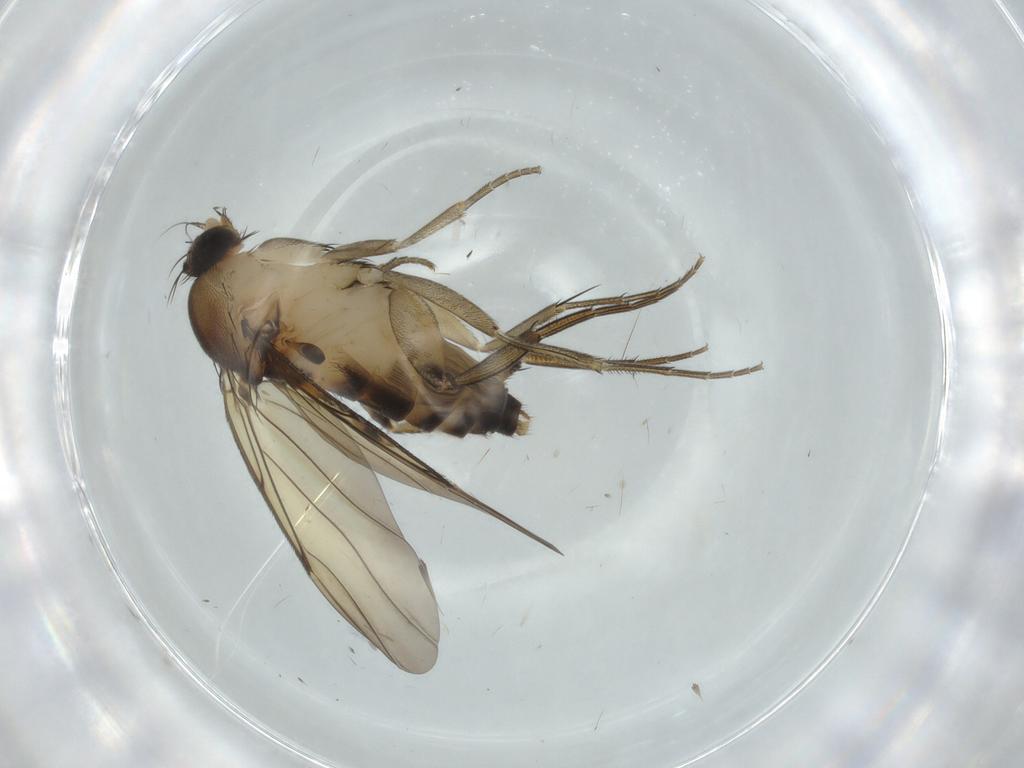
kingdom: Animalia
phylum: Arthropoda
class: Insecta
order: Diptera
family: Phoridae
